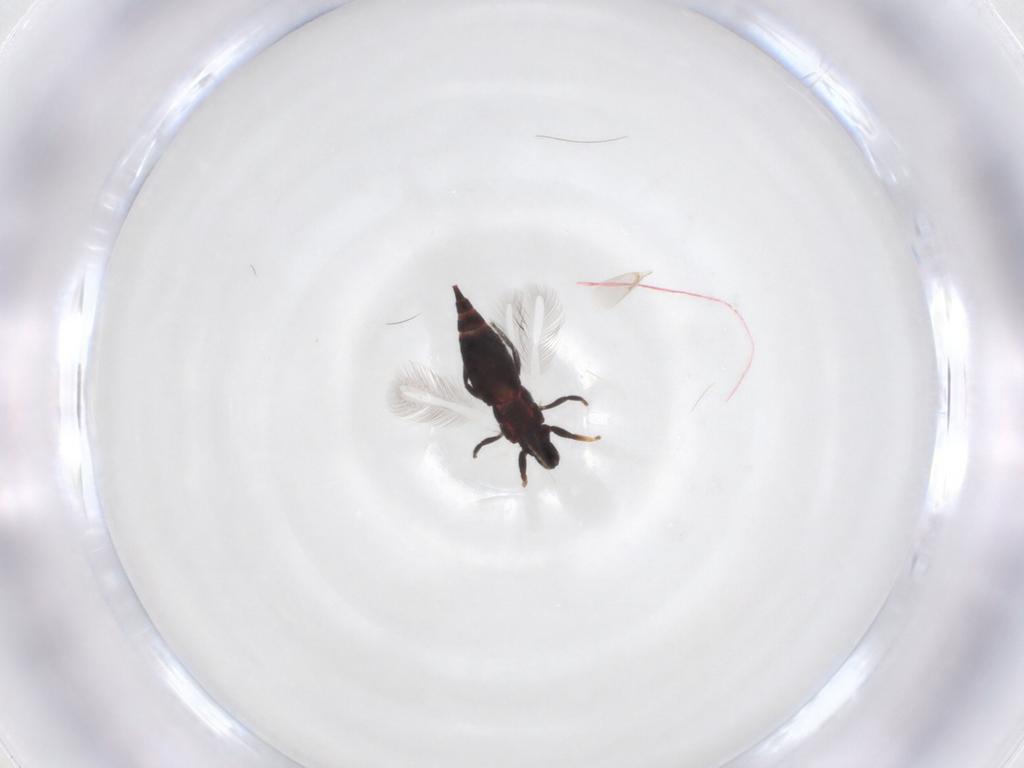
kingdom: Animalia
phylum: Arthropoda
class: Insecta
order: Thysanoptera
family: Phlaeothripidae
